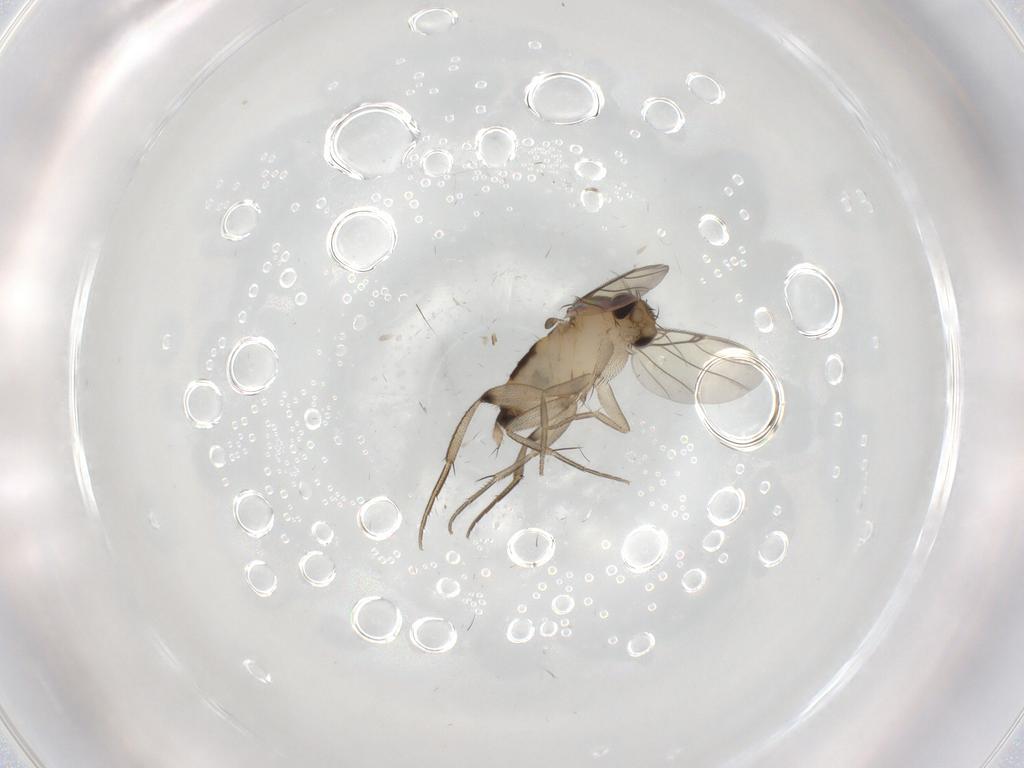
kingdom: Animalia
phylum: Arthropoda
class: Insecta
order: Diptera
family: Phoridae
